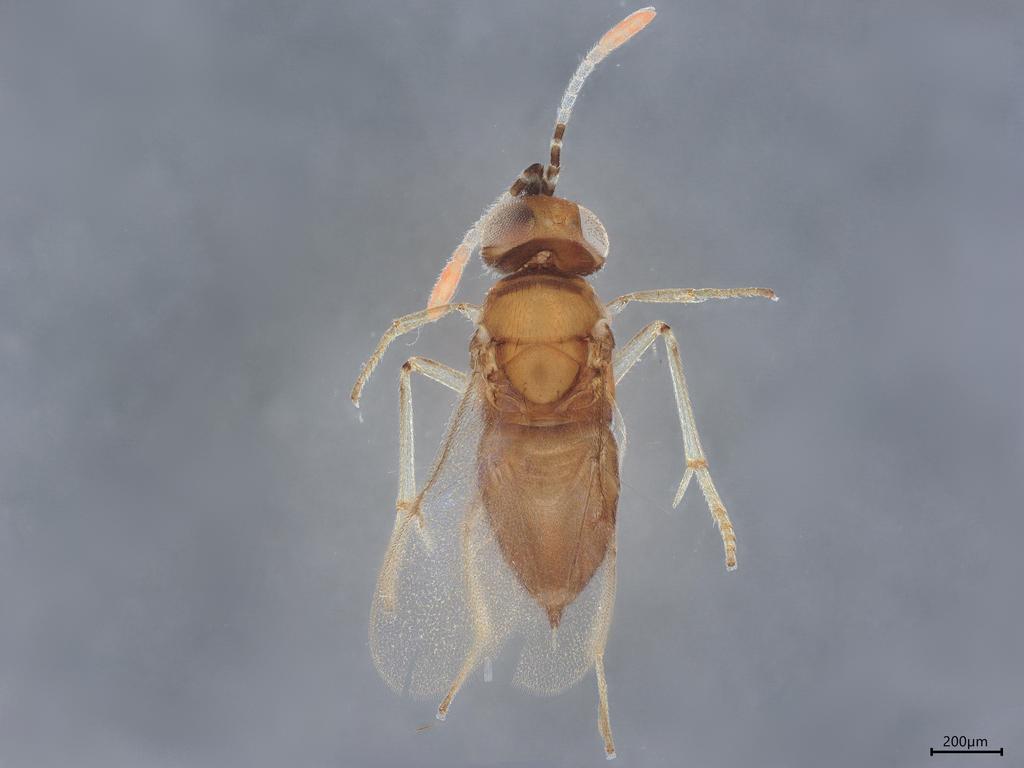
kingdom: Animalia
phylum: Arthropoda
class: Insecta
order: Hymenoptera
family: Encyrtidae
